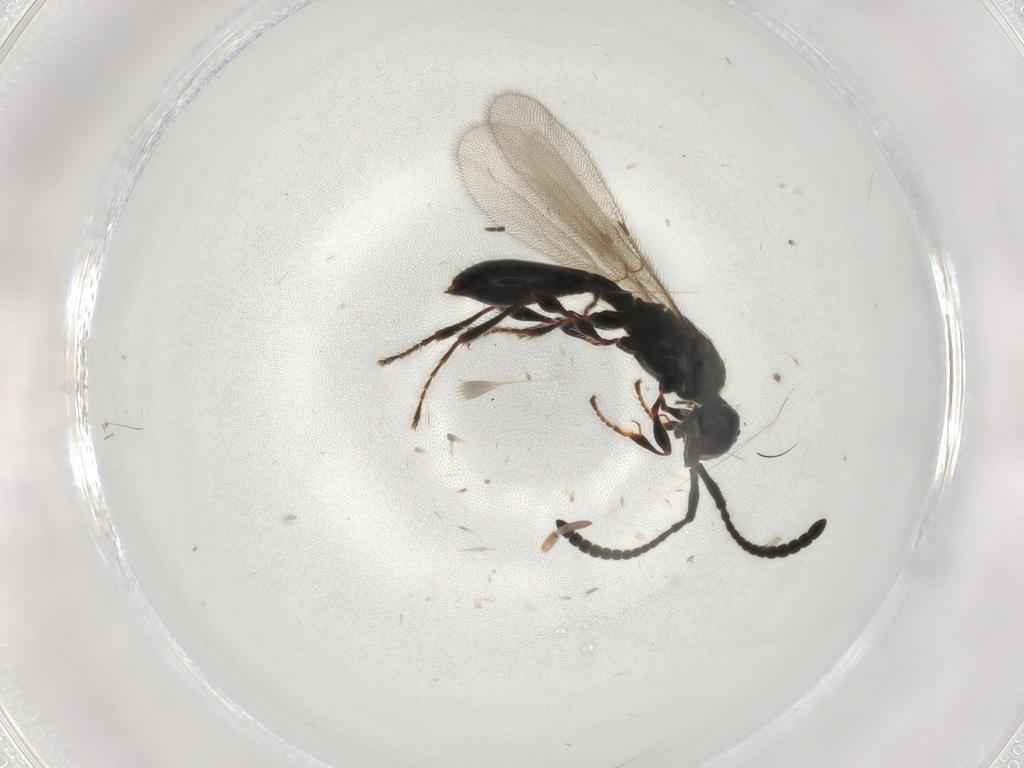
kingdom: Animalia
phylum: Arthropoda
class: Insecta
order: Hymenoptera
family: Diapriidae
